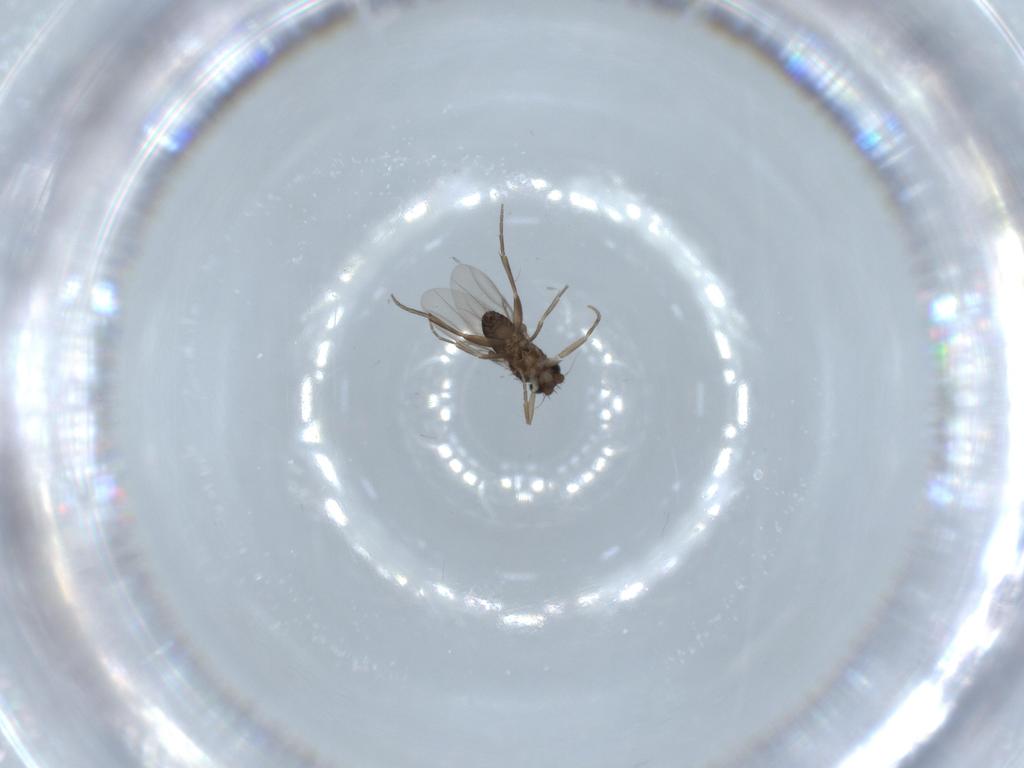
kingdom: Animalia
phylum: Arthropoda
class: Insecta
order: Diptera
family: Phoridae
